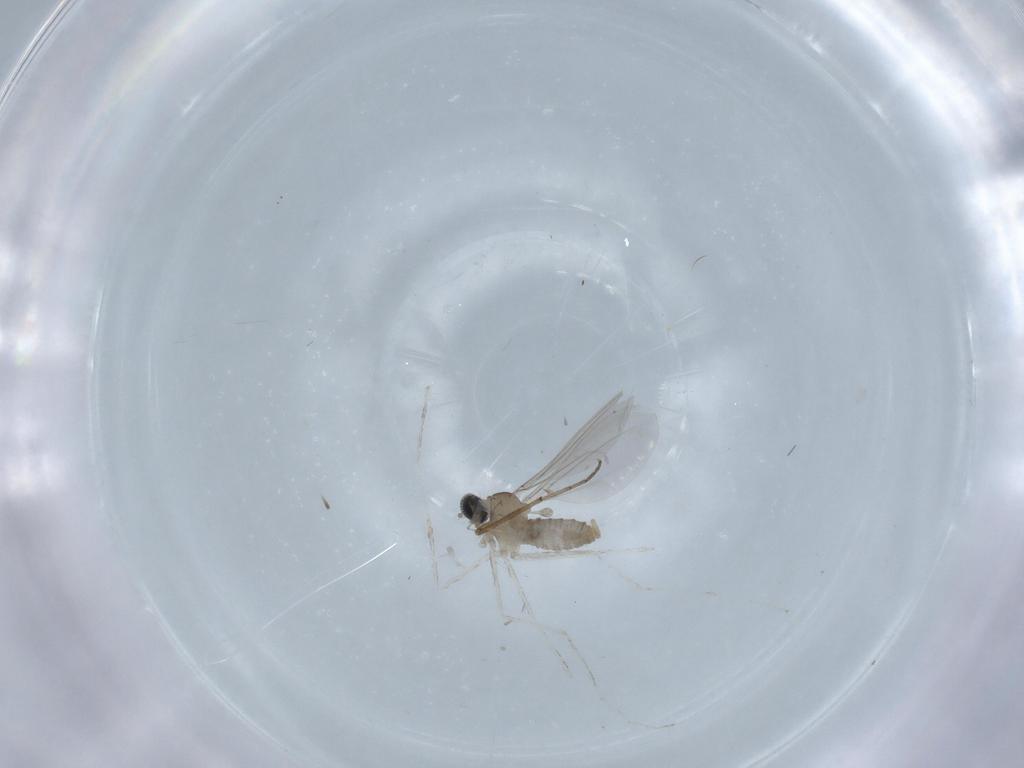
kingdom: Animalia
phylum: Arthropoda
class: Insecta
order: Diptera
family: Cecidomyiidae
